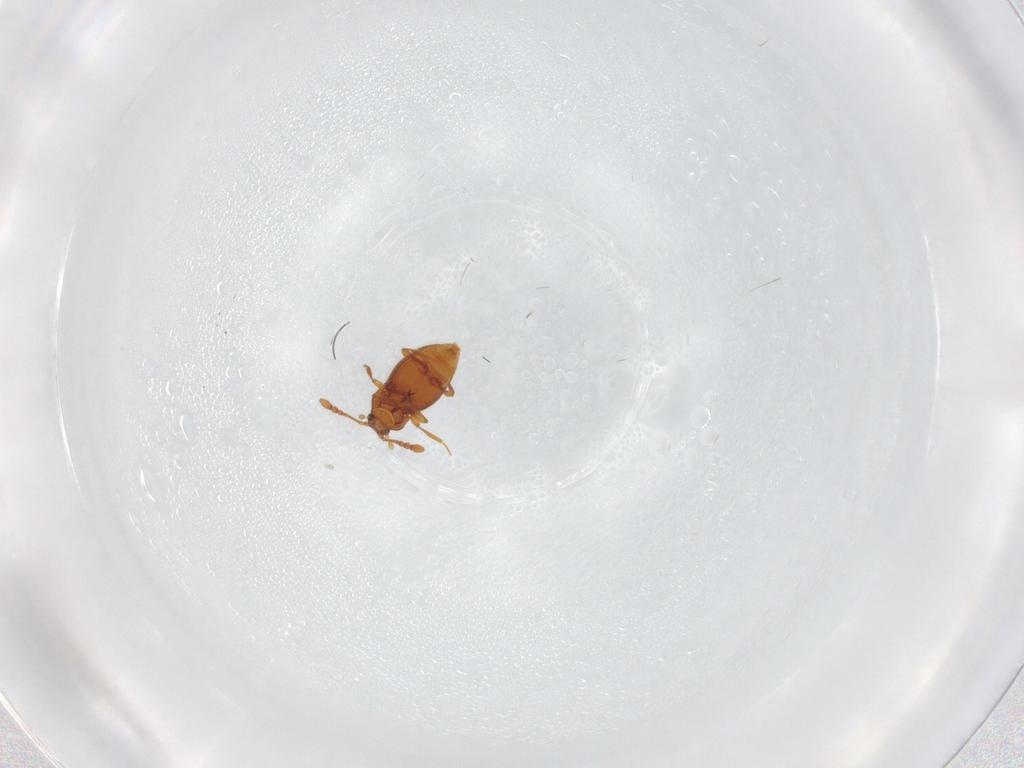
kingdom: Animalia
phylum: Arthropoda
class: Insecta
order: Coleoptera
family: Staphylinidae
